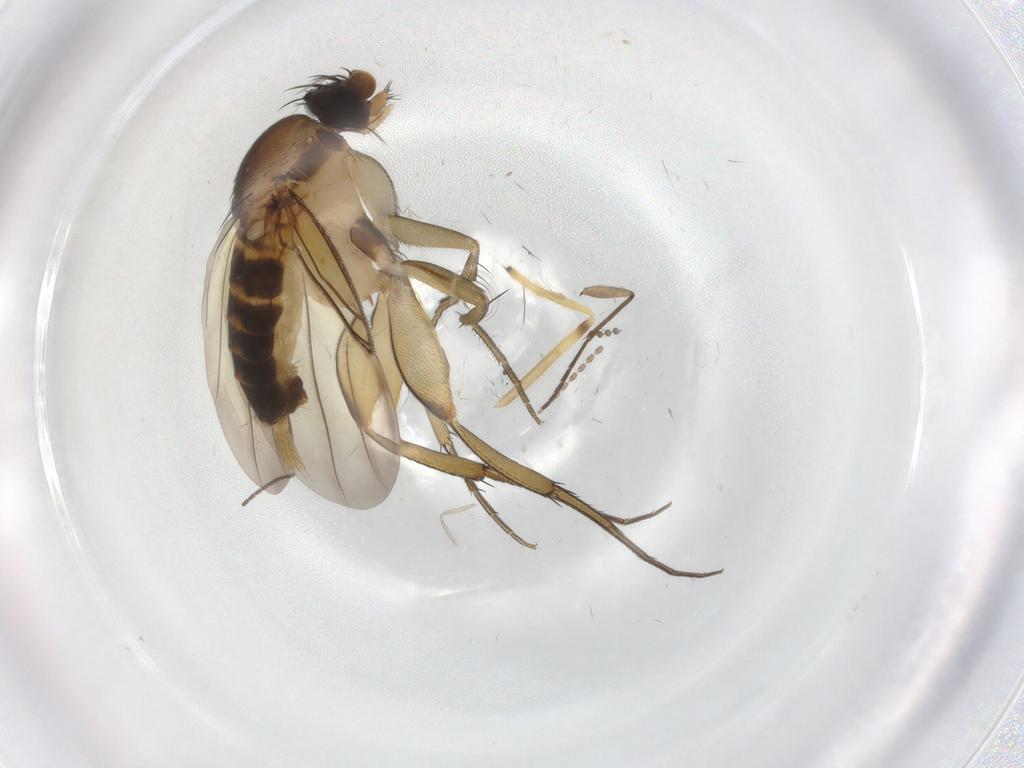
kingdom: Animalia
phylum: Arthropoda
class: Insecta
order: Diptera
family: Phoridae
